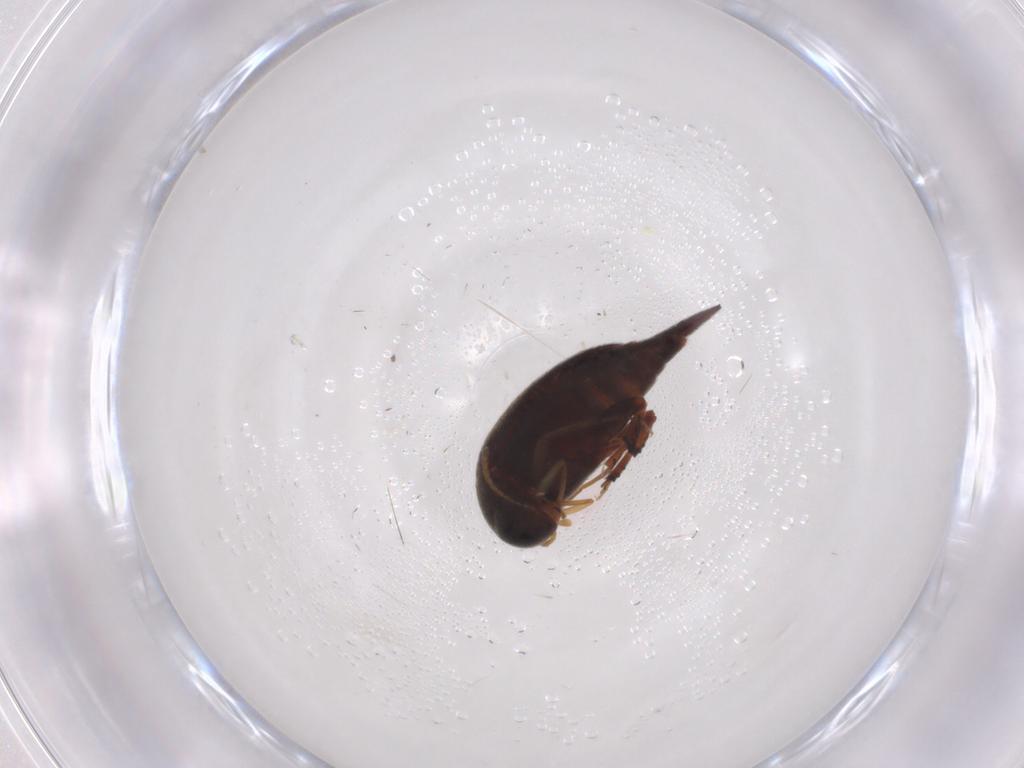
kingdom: Animalia
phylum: Arthropoda
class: Insecta
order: Coleoptera
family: Mordellidae
